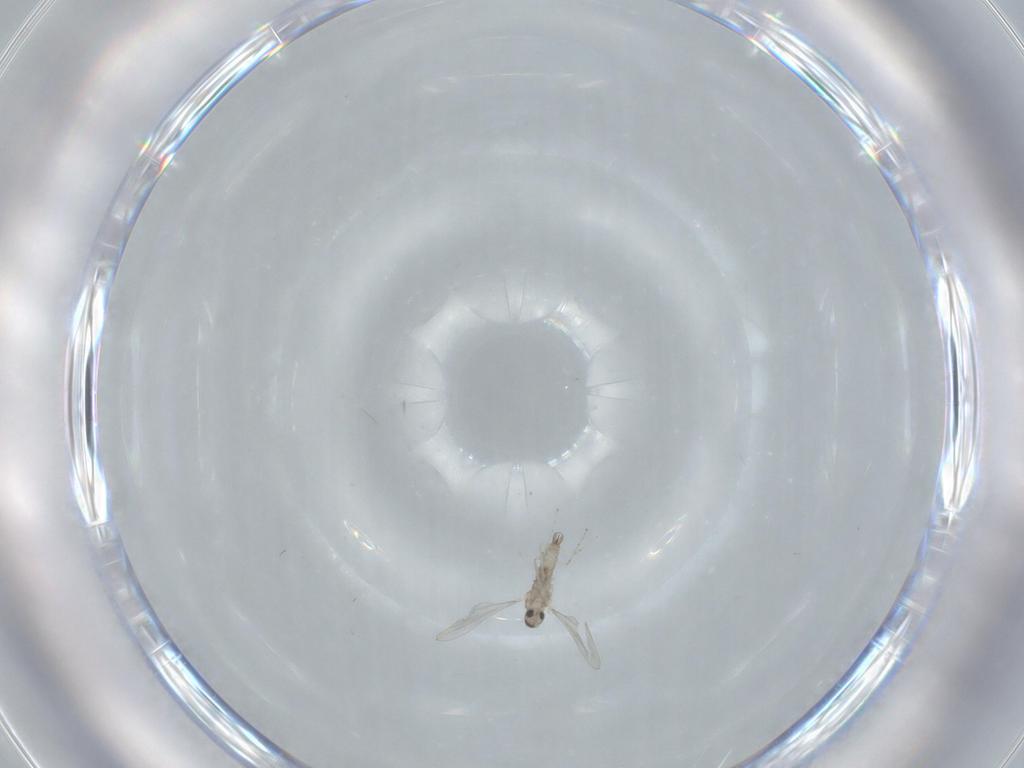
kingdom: Animalia
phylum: Arthropoda
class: Insecta
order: Diptera
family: Cecidomyiidae
